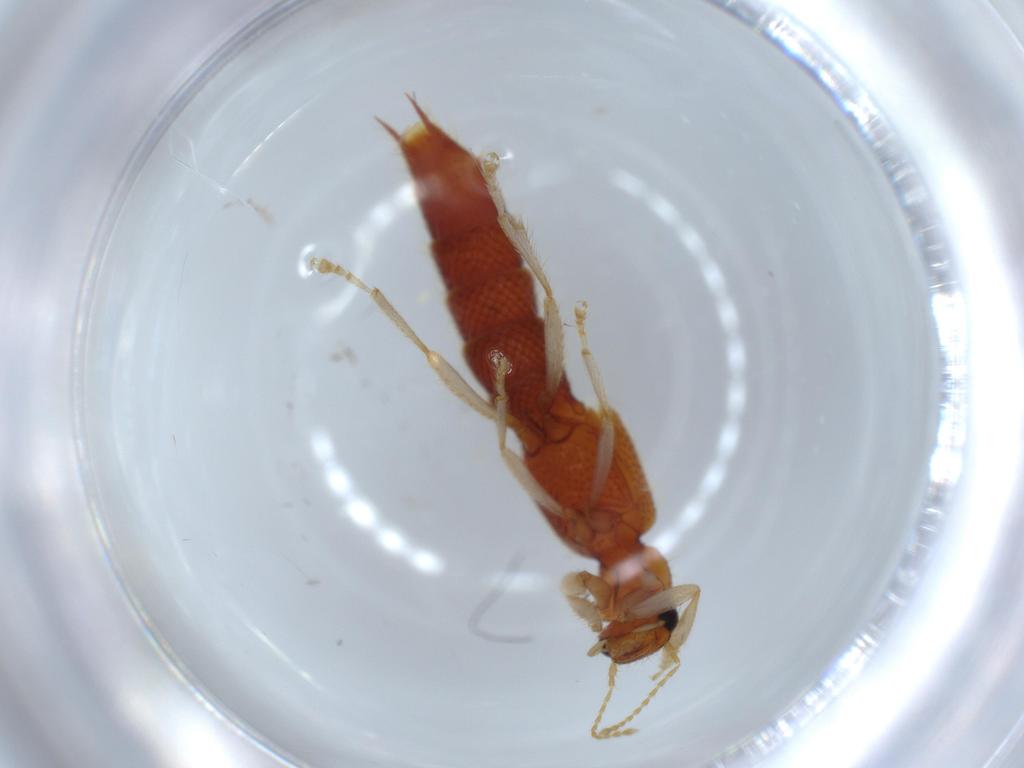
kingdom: Animalia
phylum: Arthropoda
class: Insecta
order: Coleoptera
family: Staphylinidae
